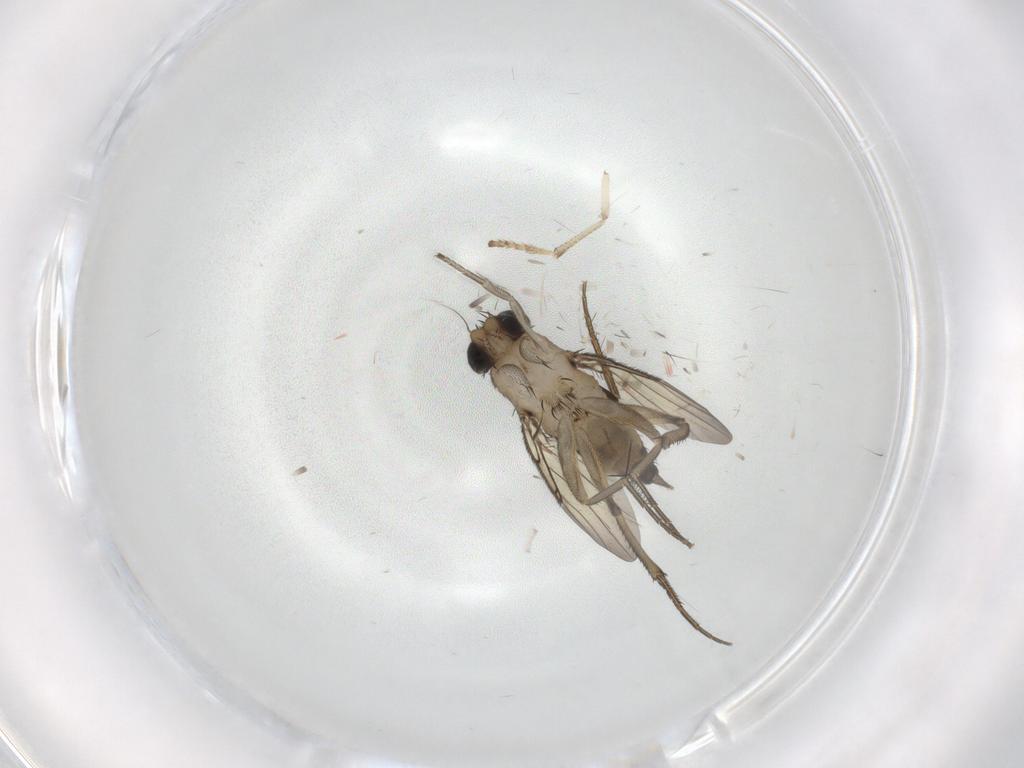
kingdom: Animalia
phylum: Arthropoda
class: Insecta
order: Diptera
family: Phoridae
